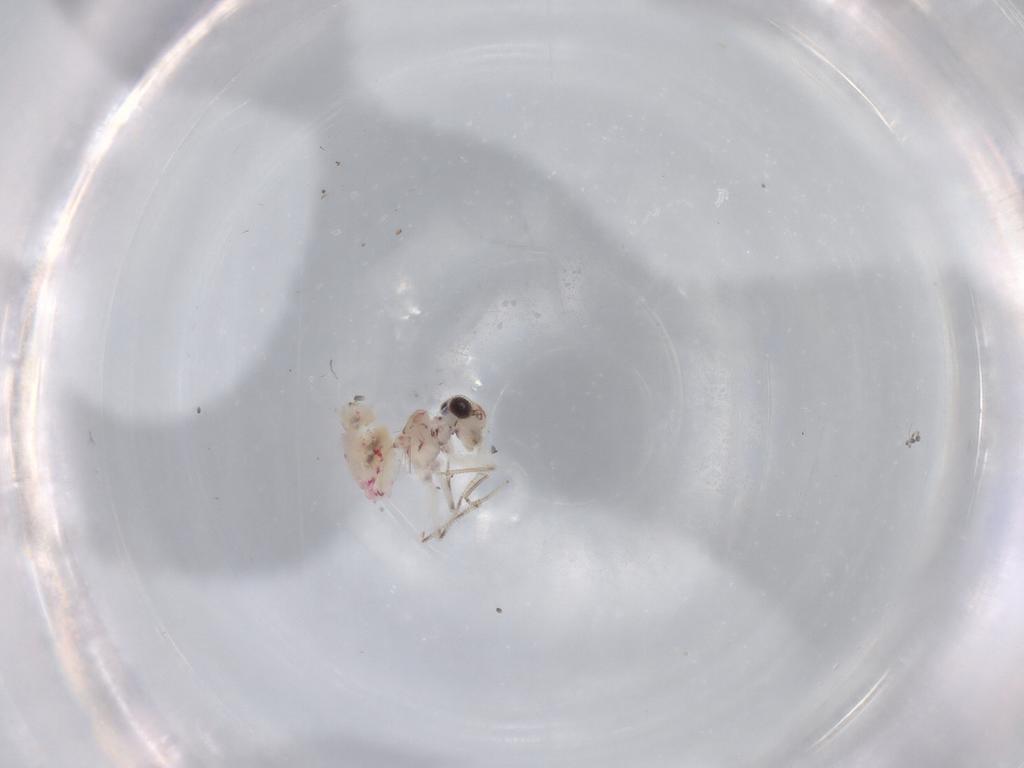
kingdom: Animalia
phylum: Arthropoda
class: Insecta
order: Psocodea
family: Caeciliusidae
